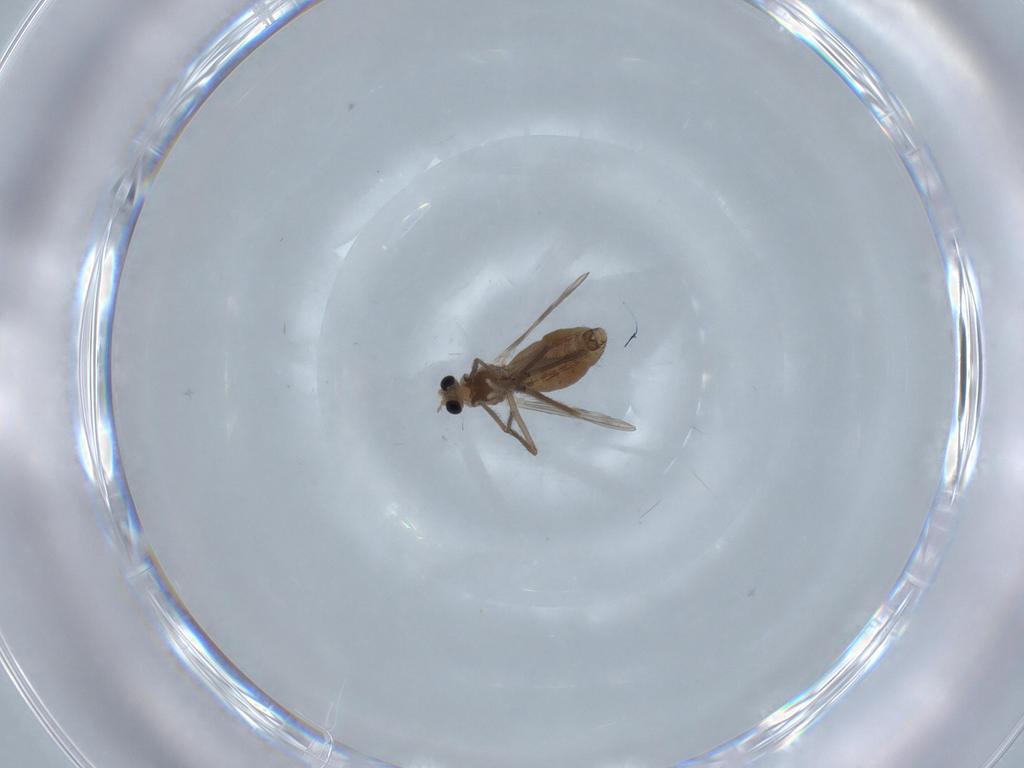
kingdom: Animalia
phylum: Arthropoda
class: Insecta
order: Diptera
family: Chironomidae
